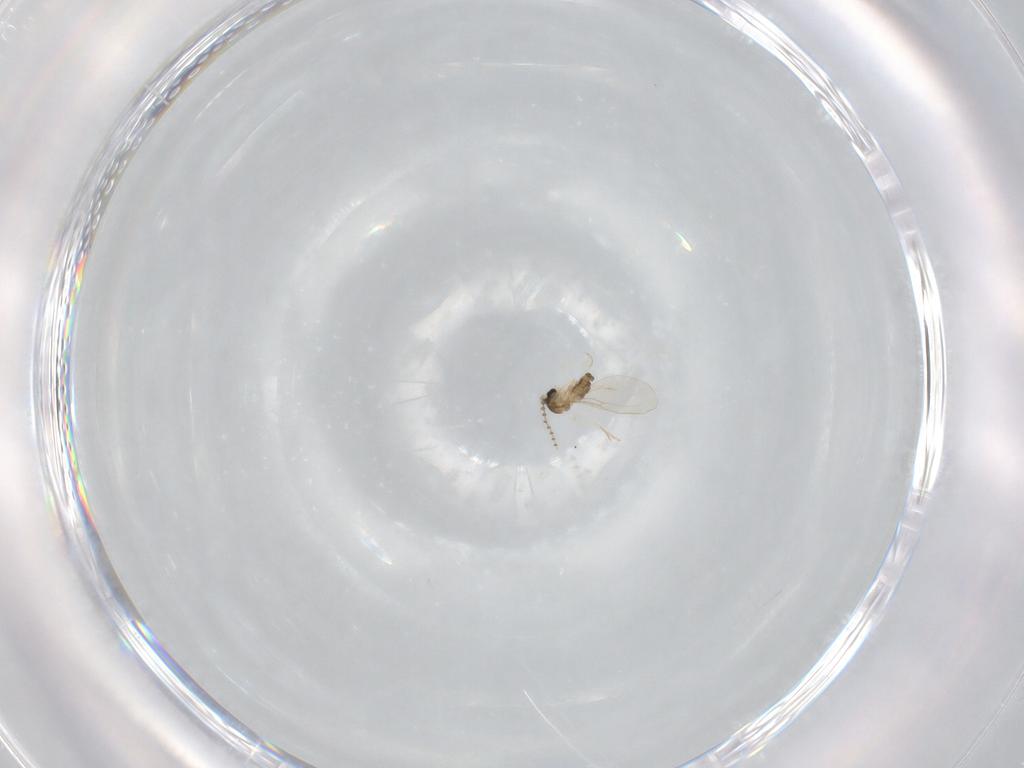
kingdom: Animalia
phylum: Arthropoda
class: Insecta
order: Diptera
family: Cecidomyiidae
